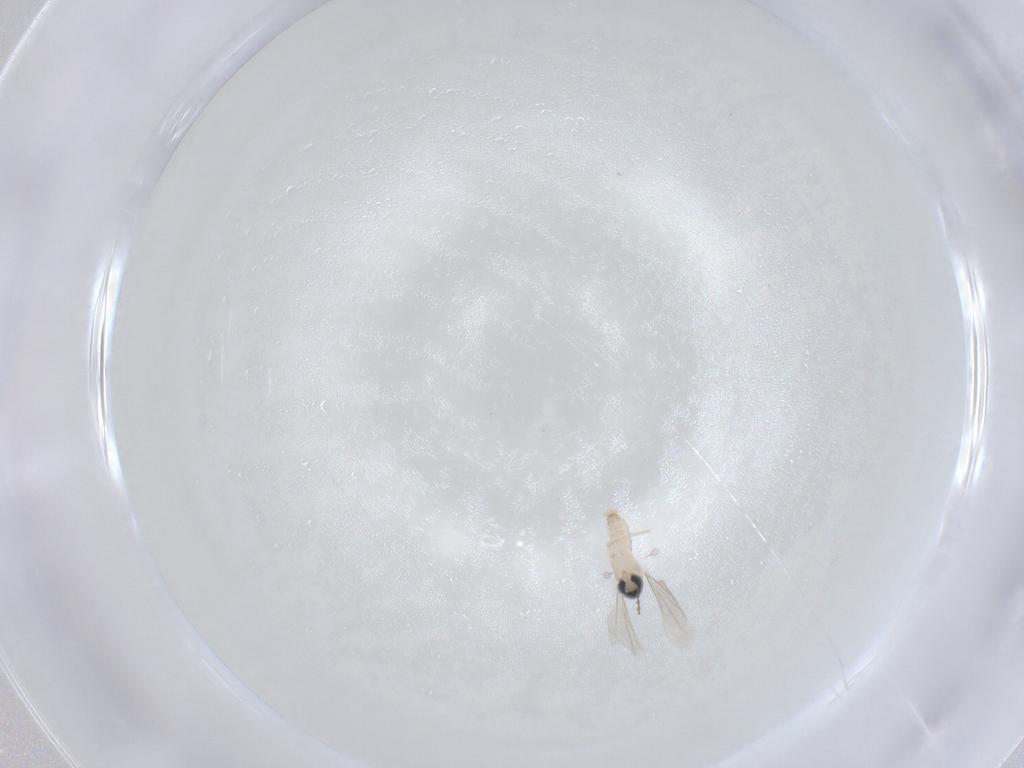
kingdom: Animalia
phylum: Arthropoda
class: Insecta
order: Diptera
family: Cecidomyiidae
